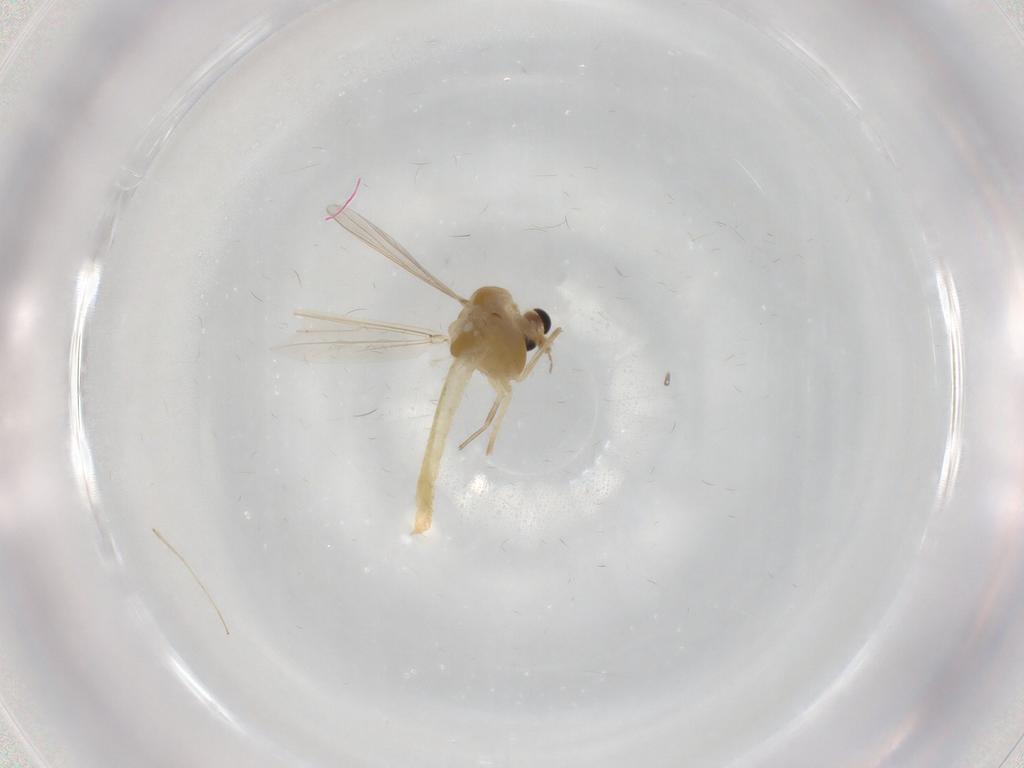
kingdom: Animalia
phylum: Arthropoda
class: Insecta
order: Diptera
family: Chironomidae
